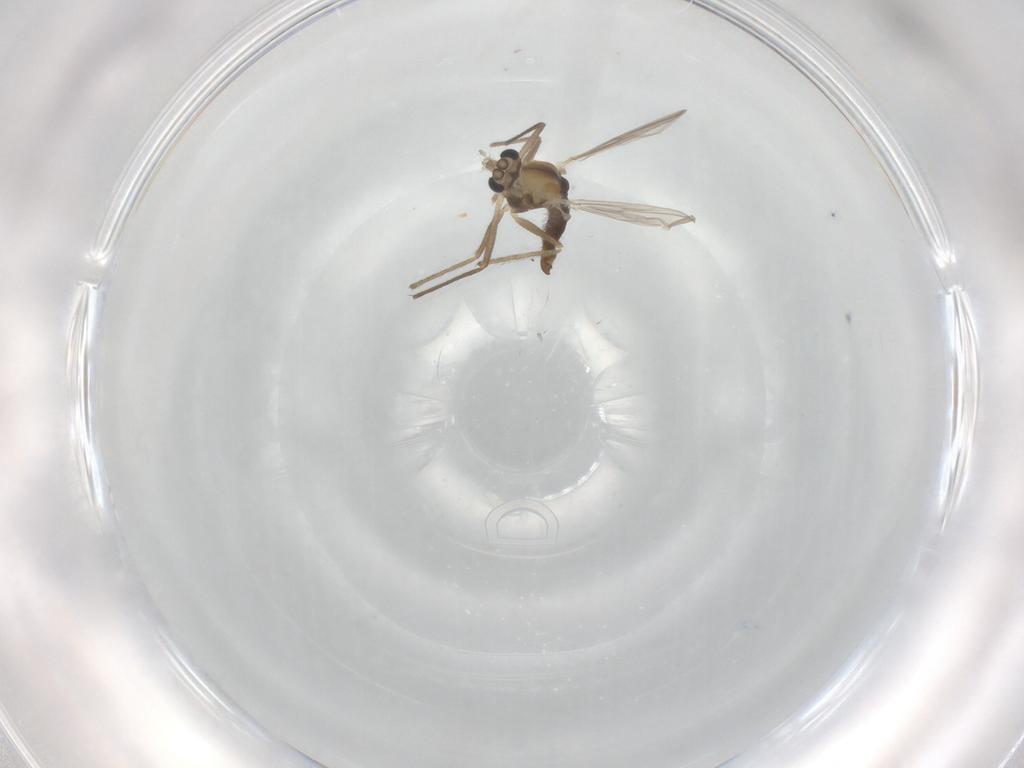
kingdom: Animalia
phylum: Arthropoda
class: Insecta
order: Diptera
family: Chironomidae
